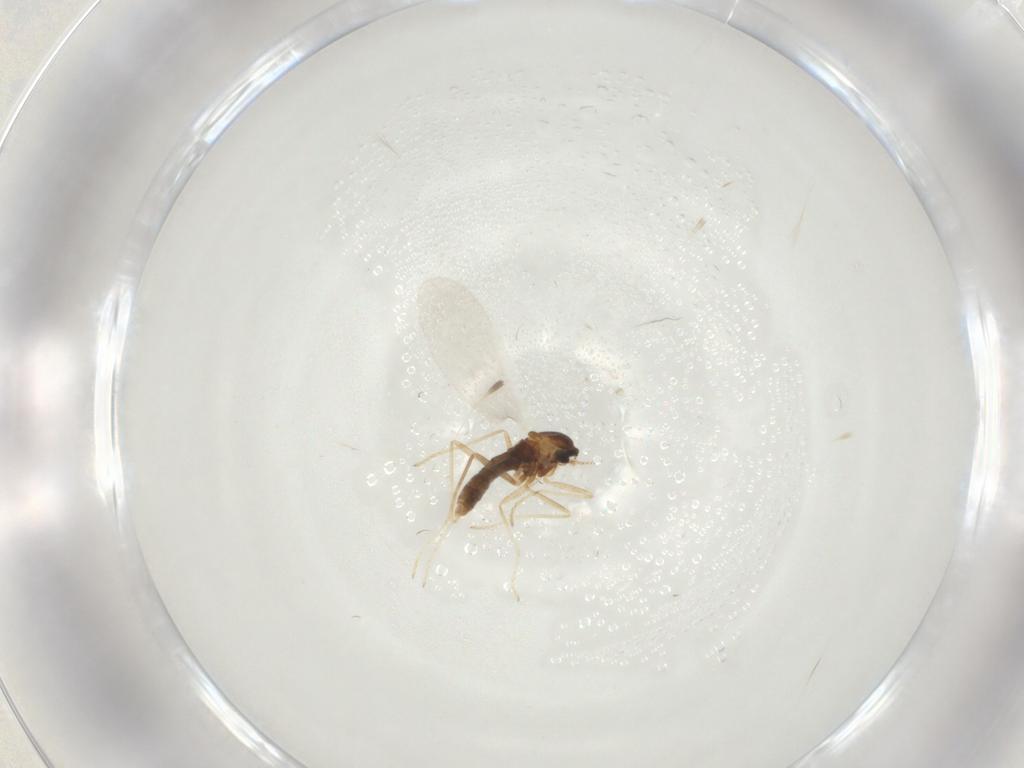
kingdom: Animalia
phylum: Arthropoda
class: Insecta
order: Diptera
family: Cecidomyiidae
